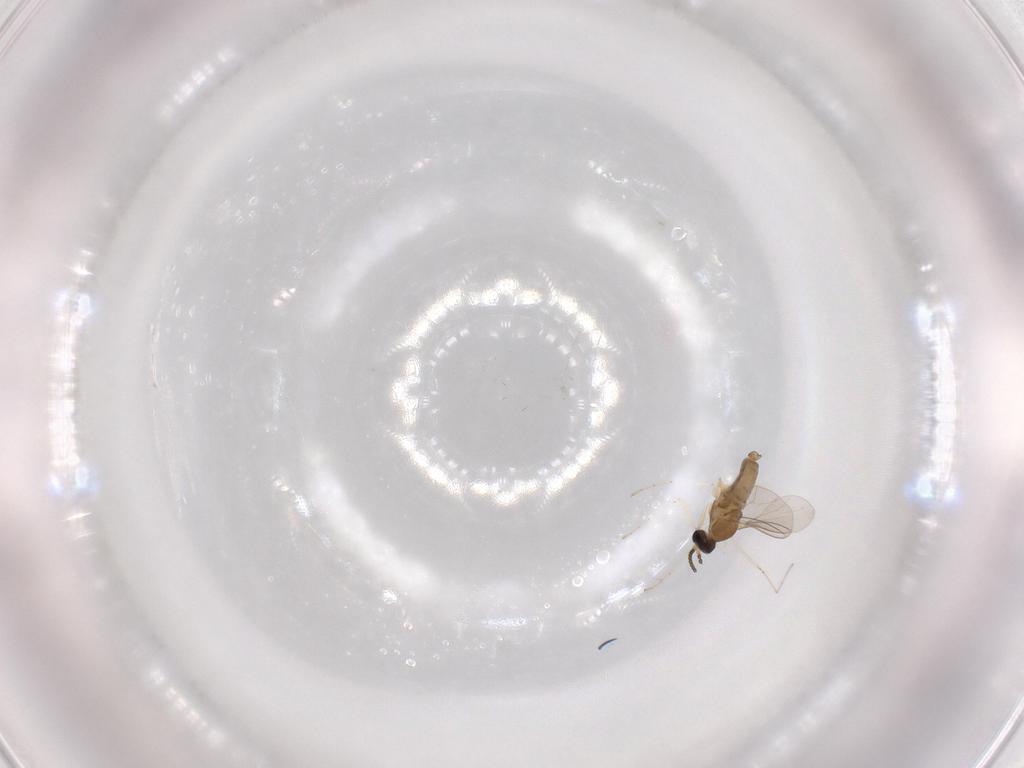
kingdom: Animalia
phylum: Arthropoda
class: Insecta
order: Diptera
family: Cecidomyiidae
